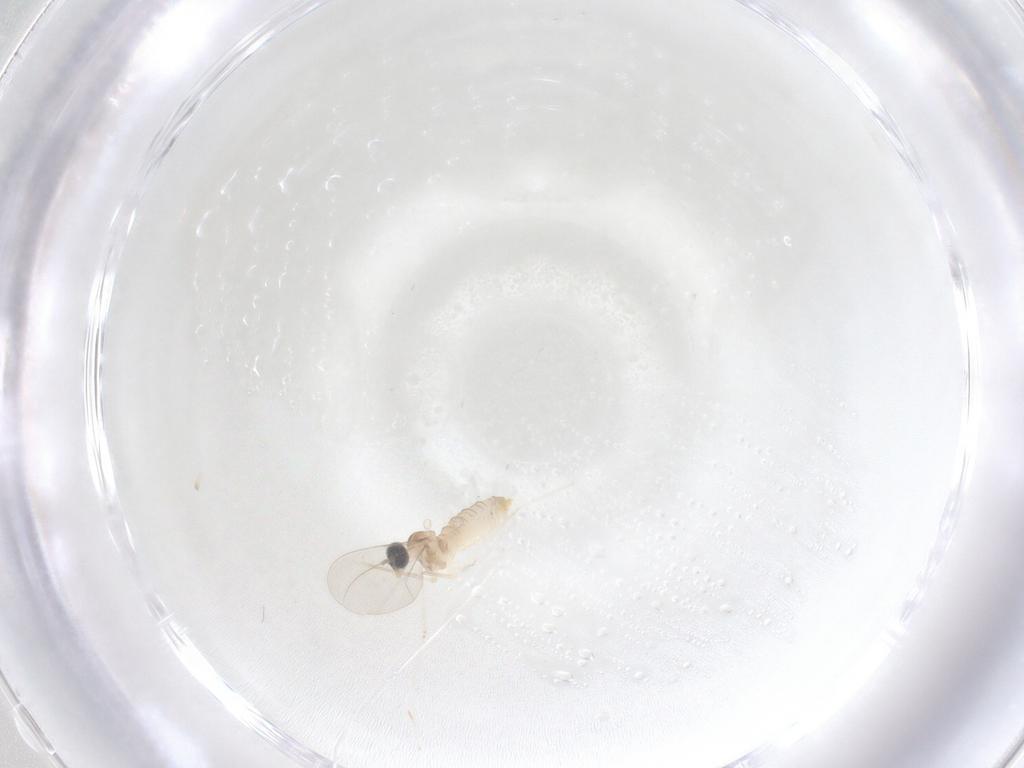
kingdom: Animalia
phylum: Arthropoda
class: Insecta
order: Diptera
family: Cecidomyiidae
